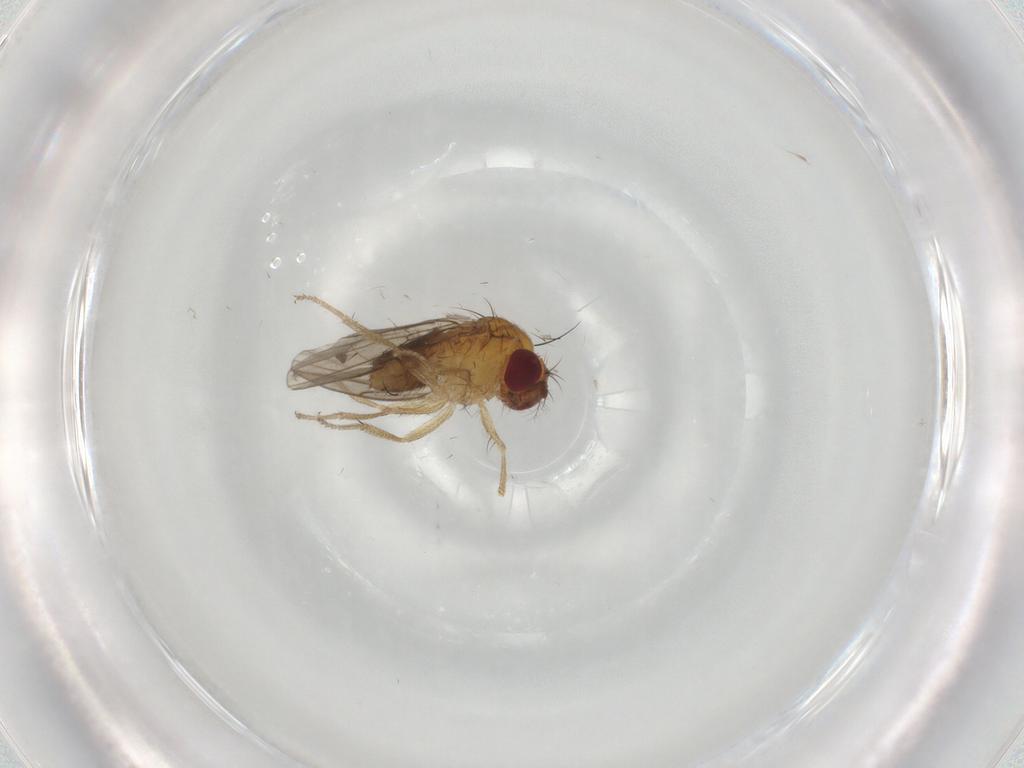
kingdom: Animalia
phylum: Arthropoda
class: Insecta
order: Diptera
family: Drosophilidae
